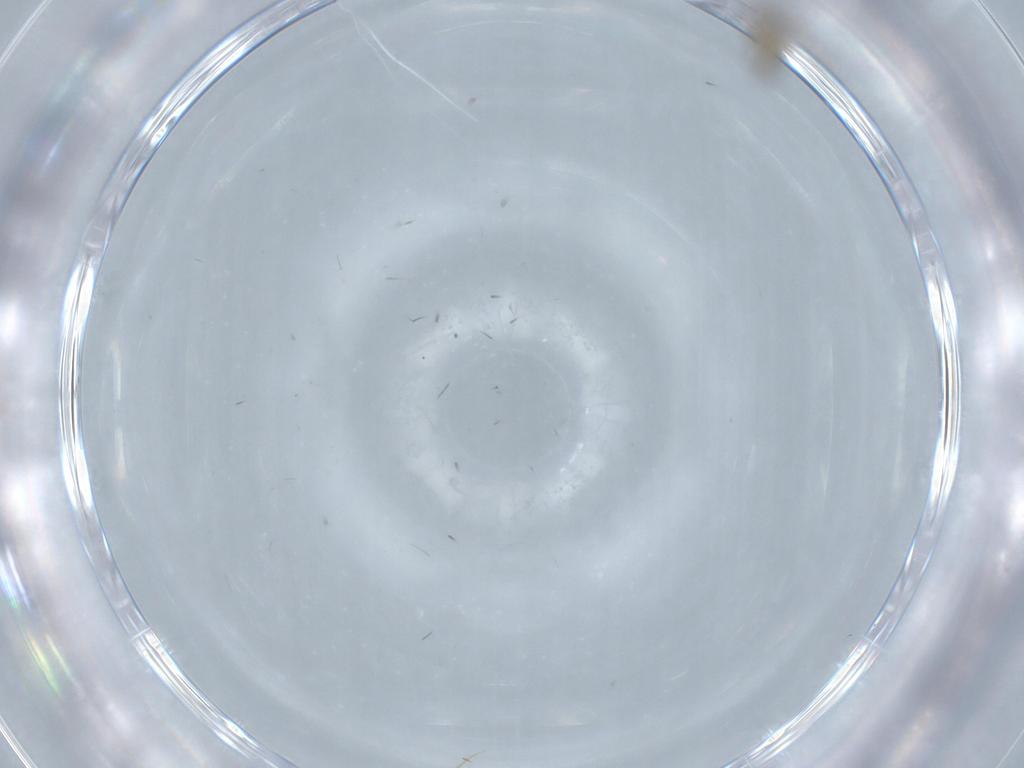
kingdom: Animalia
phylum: Arthropoda
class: Insecta
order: Diptera
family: Cecidomyiidae
